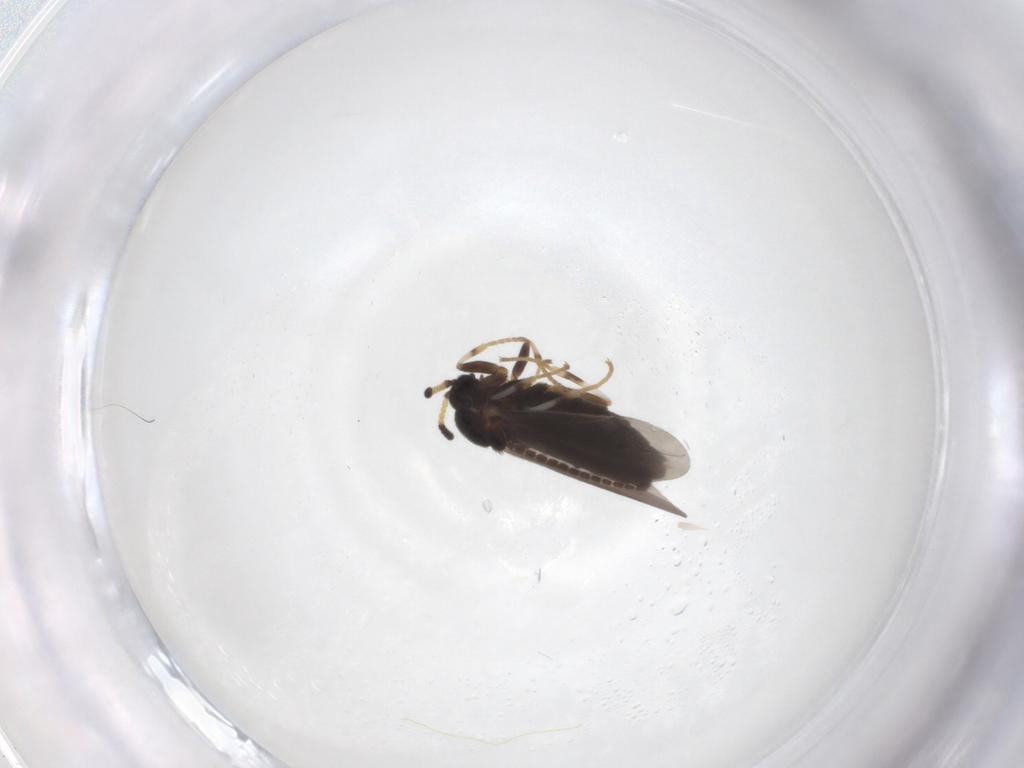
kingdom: Animalia
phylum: Arthropoda
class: Insecta
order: Diptera
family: Scatopsidae
